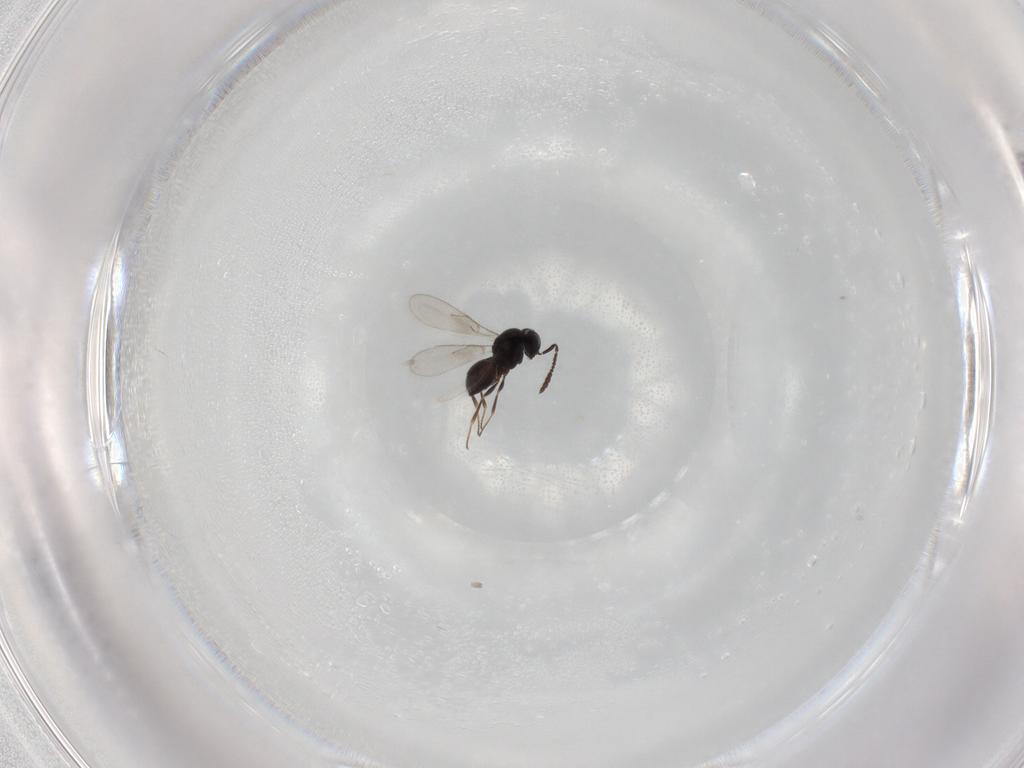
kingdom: Animalia
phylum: Arthropoda
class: Insecta
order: Hymenoptera
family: Scelionidae
